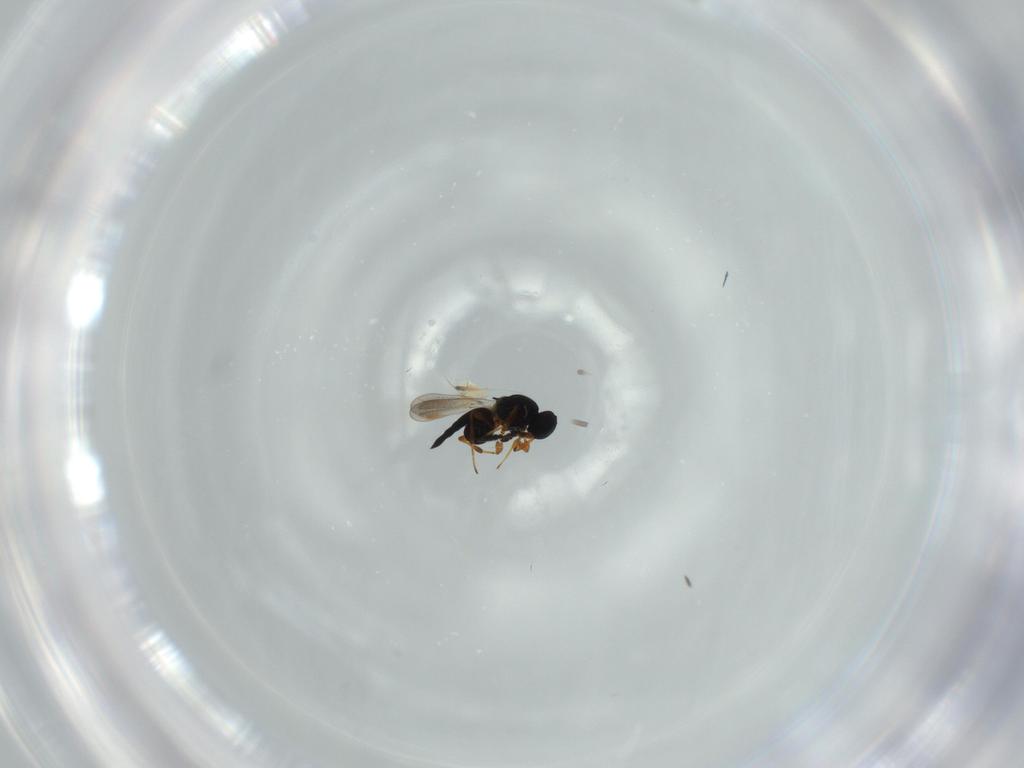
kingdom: Animalia
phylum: Arthropoda
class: Insecta
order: Hymenoptera
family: Platygastridae
